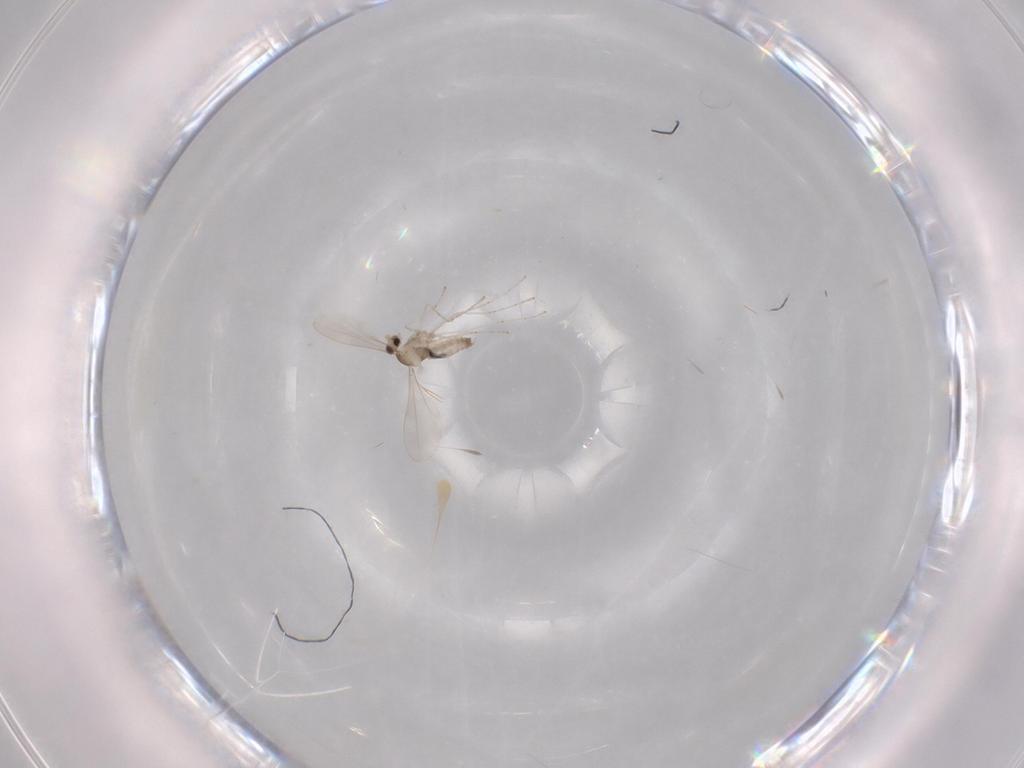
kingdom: Animalia
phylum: Arthropoda
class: Insecta
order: Diptera
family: Cecidomyiidae
